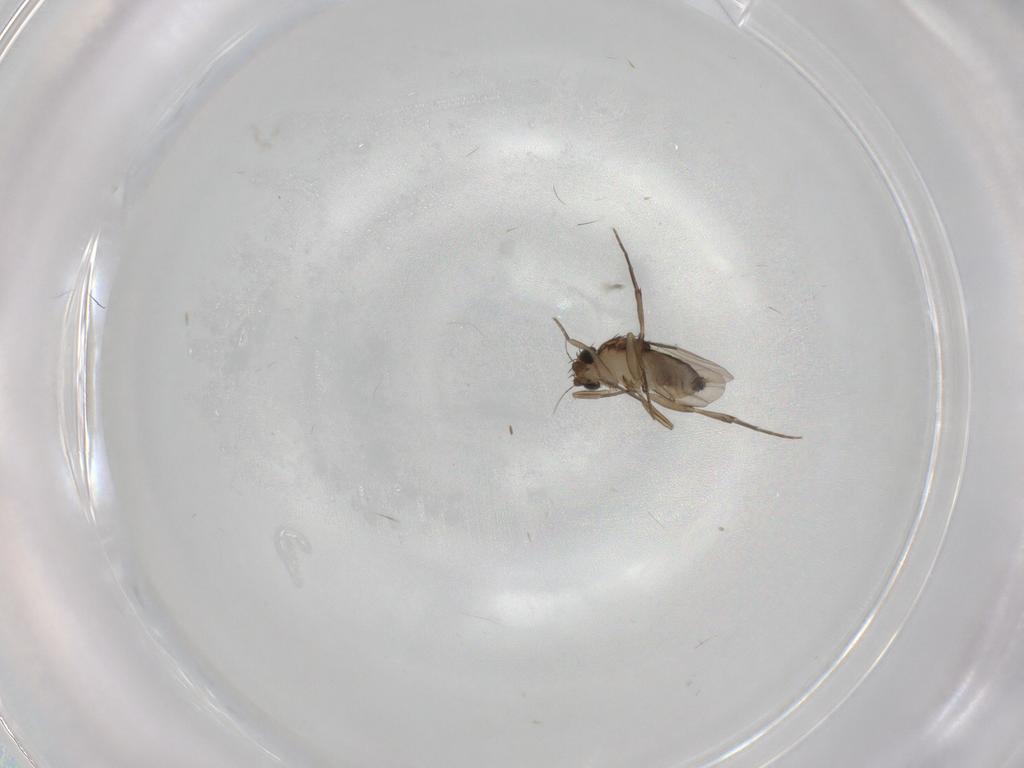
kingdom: Animalia
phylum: Arthropoda
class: Insecta
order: Diptera
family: Phoridae
